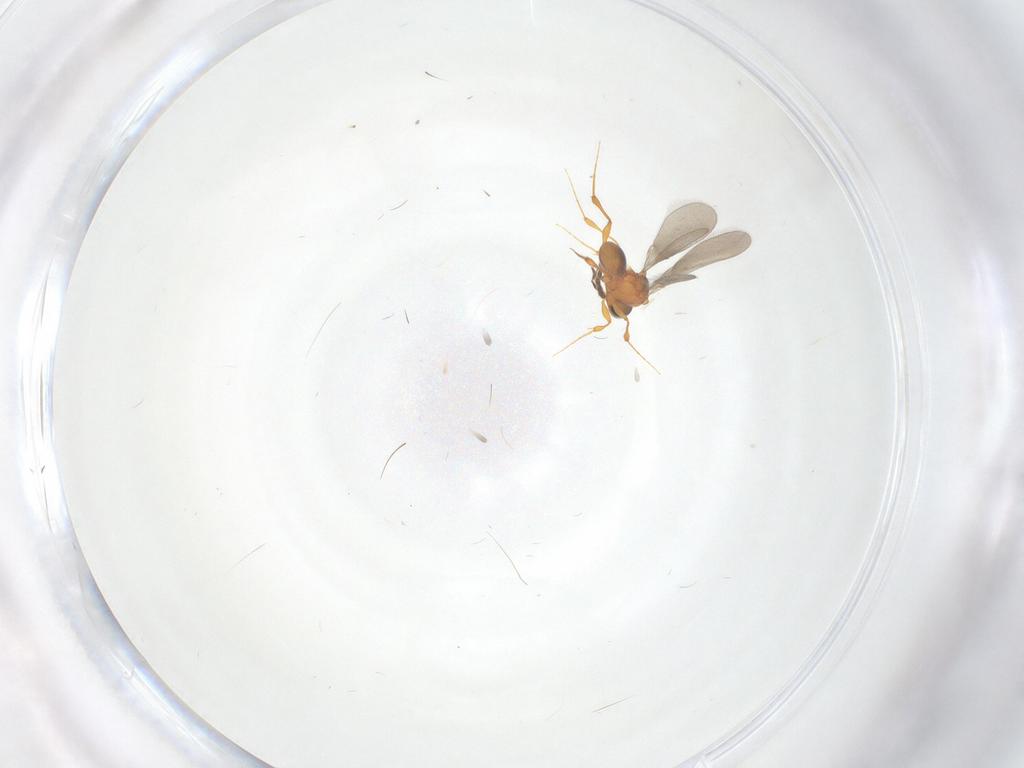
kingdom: Animalia
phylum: Arthropoda
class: Insecta
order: Hymenoptera
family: Platygastridae
